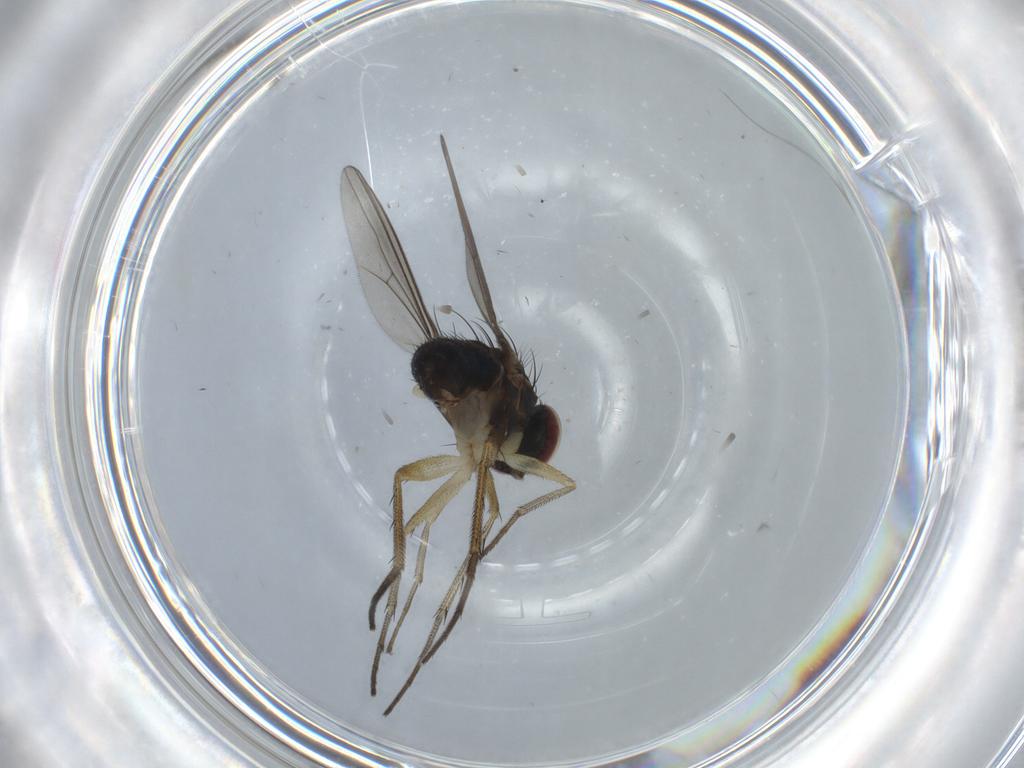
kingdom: Animalia
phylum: Arthropoda
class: Insecta
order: Diptera
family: Dolichopodidae
